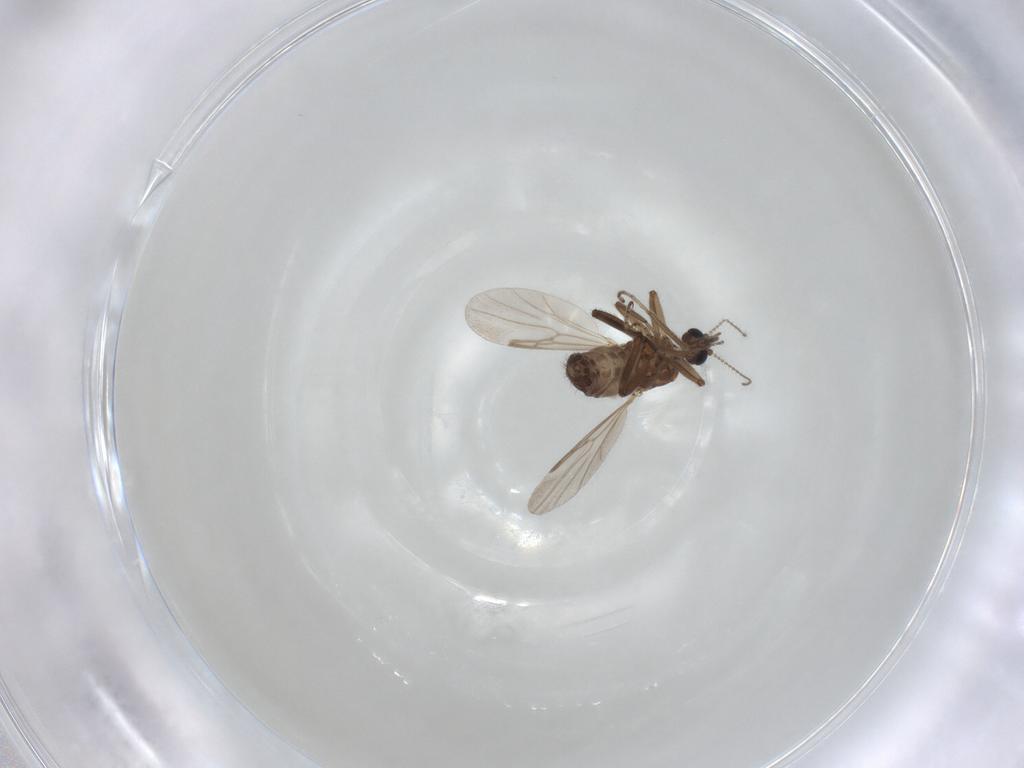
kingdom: Animalia
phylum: Arthropoda
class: Insecta
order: Diptera
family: Ceratopogonidae
